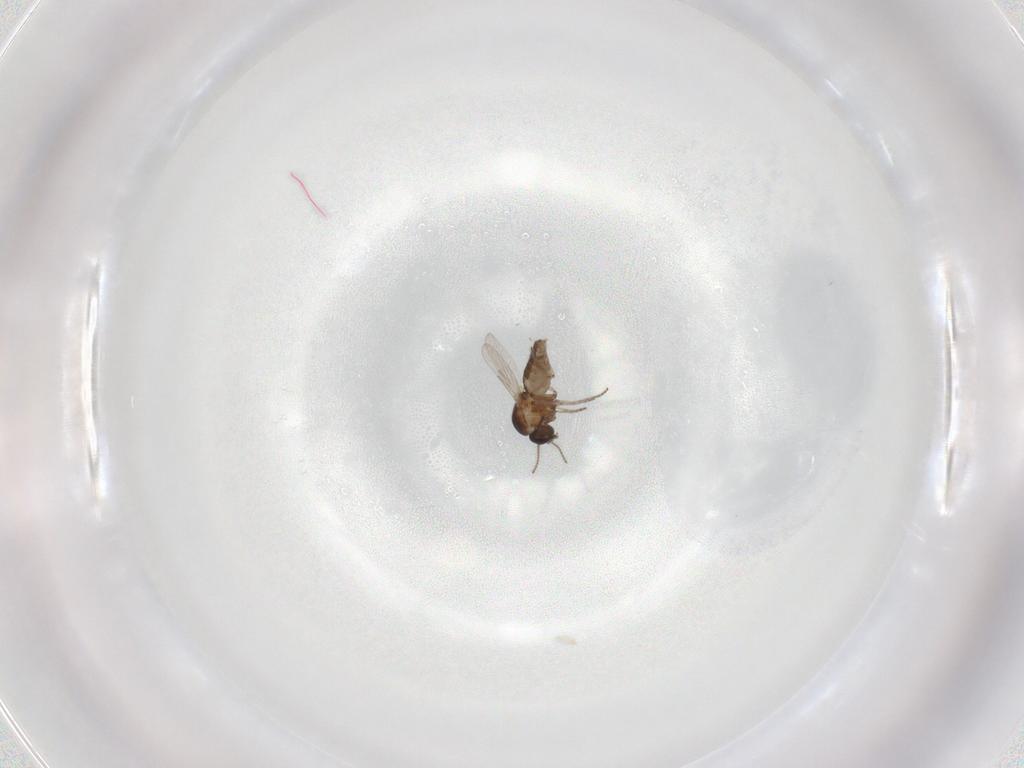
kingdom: Animalia
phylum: Arthropoda
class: Insecta
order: Diptera
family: Ceratopogonidae
